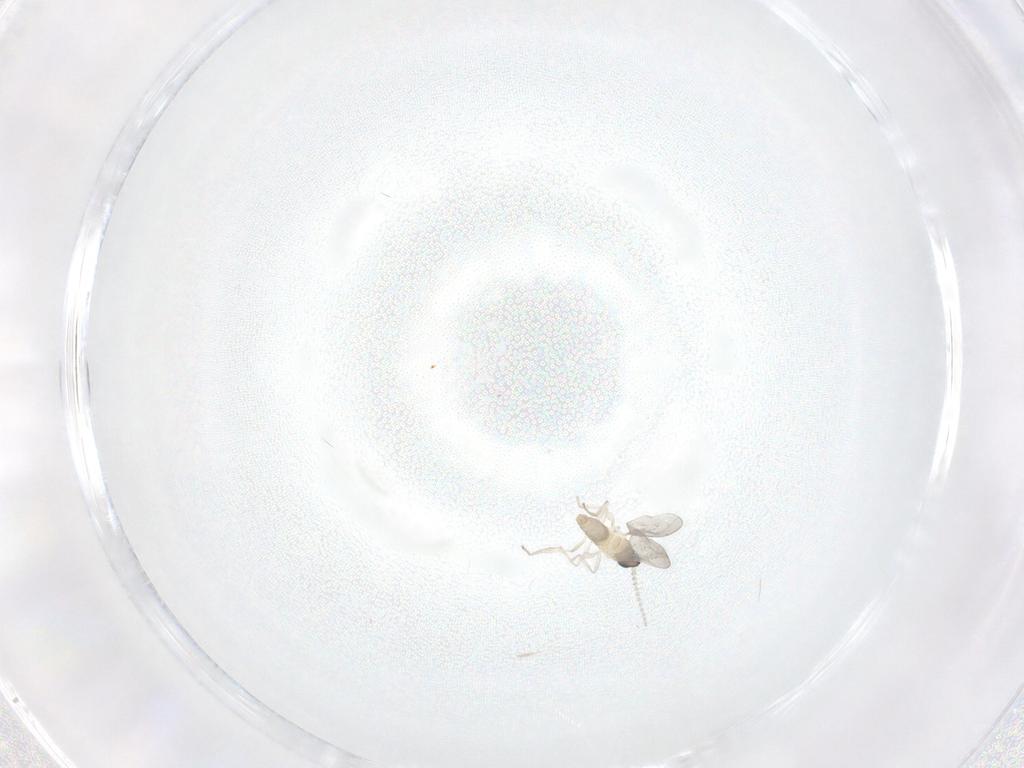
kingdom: Animalia
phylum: Arthropoda
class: Insecta
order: Diptera
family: Cecidomyiidae
